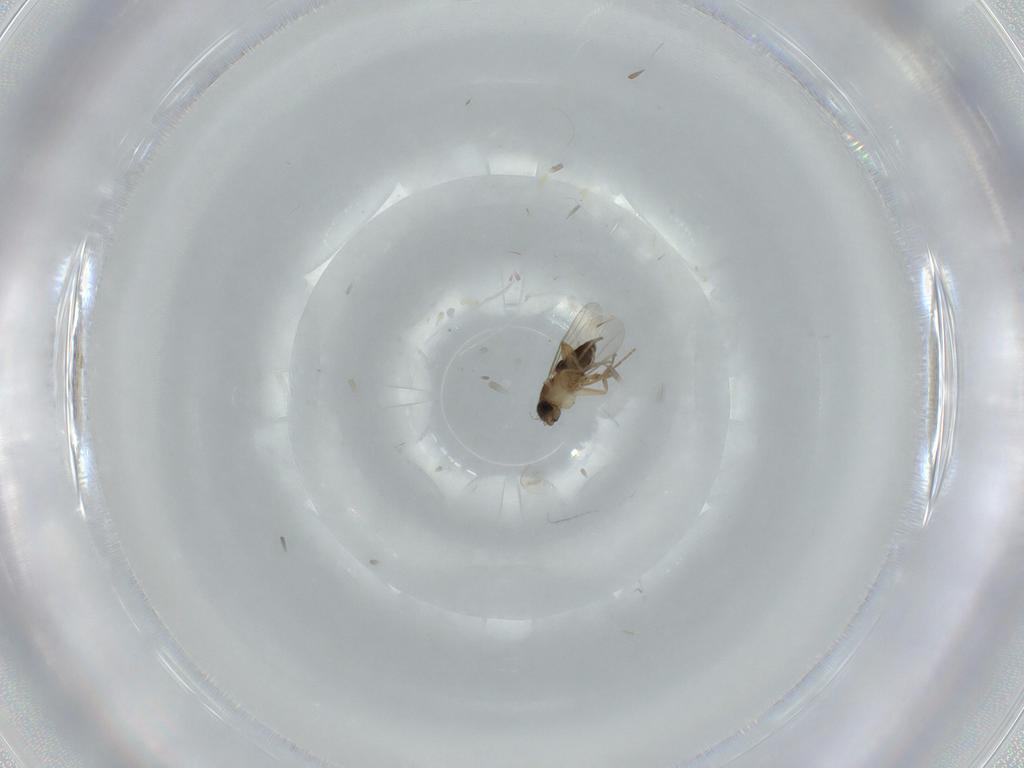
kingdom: Animalia
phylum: Arthropoda
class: Insecta
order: Diptera
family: Phoridae
